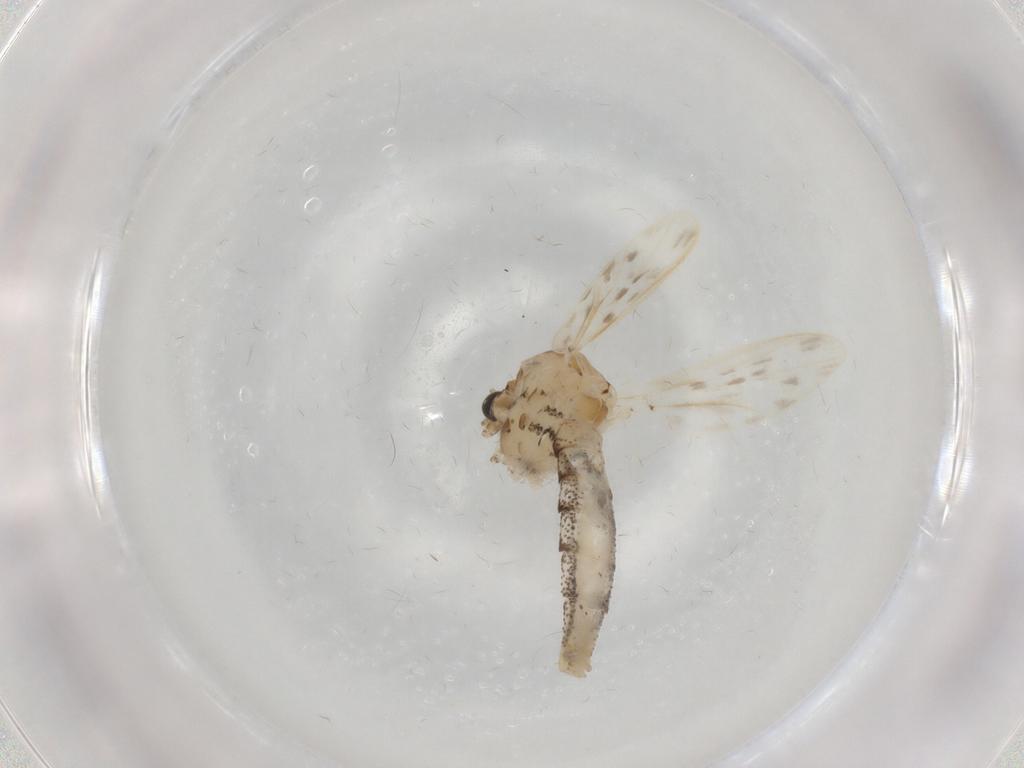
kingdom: Animalia
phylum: Arthropoda
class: Insecta
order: Diptera
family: Chaoboridae
